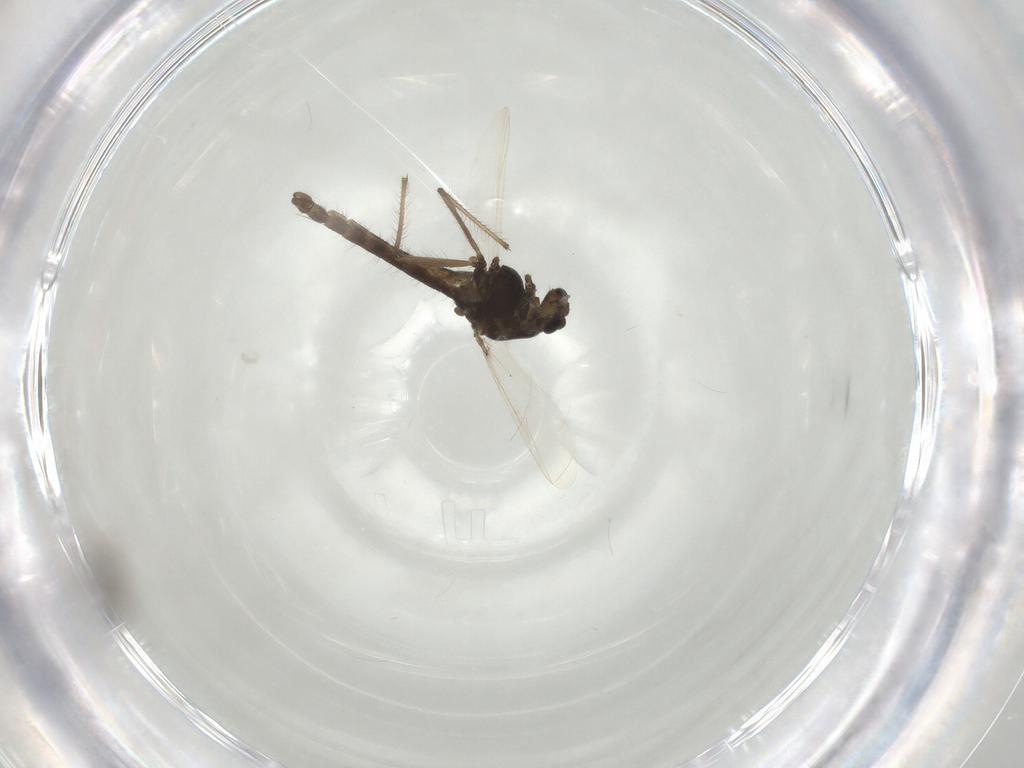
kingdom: Animalia
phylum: Arthropoda
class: Insecta
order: Diptera
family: Chironomidae
